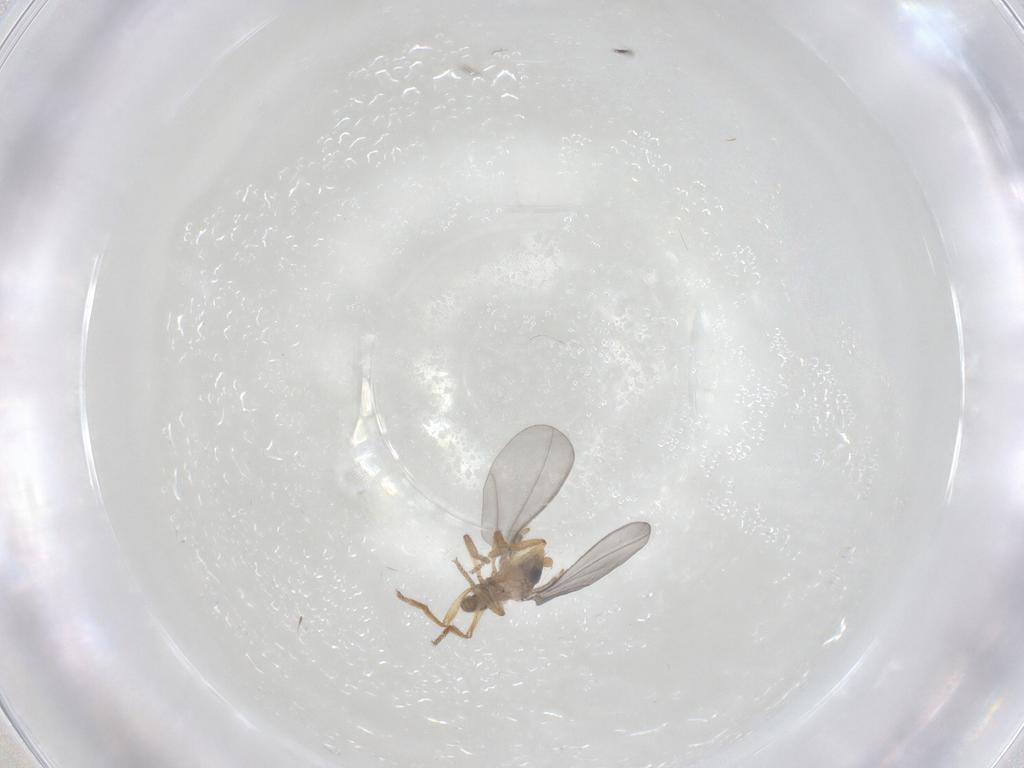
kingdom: Animalia
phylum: Arthropoda
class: Insecta
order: Diptera
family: Phoridae
